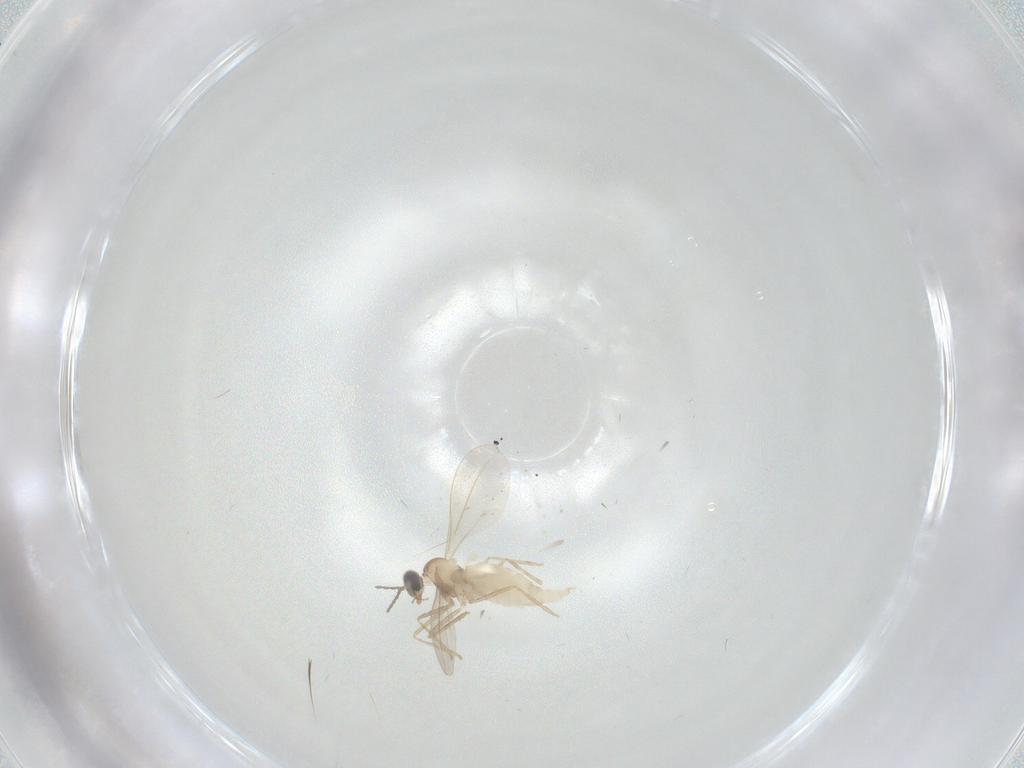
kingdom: Animalia
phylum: Arthropoda
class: Insecta
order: Diptera
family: Cecidomyiidae
